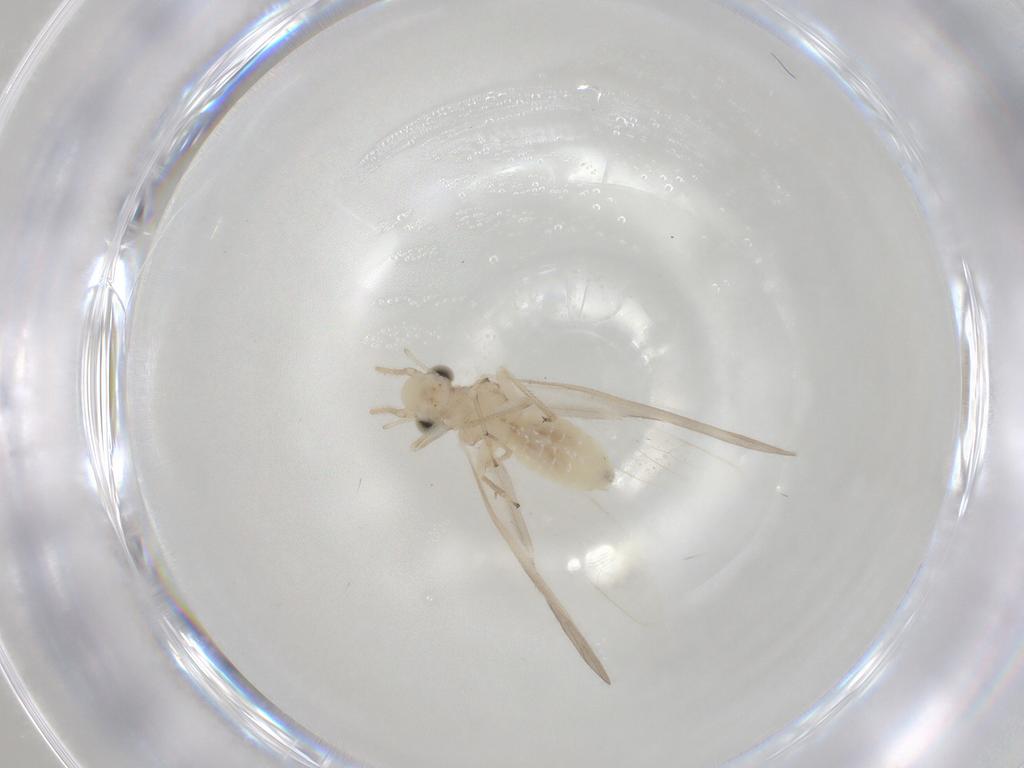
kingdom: Animalia
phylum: Arthropoda
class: Insecta
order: Psocodea
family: Caeciliusidae
